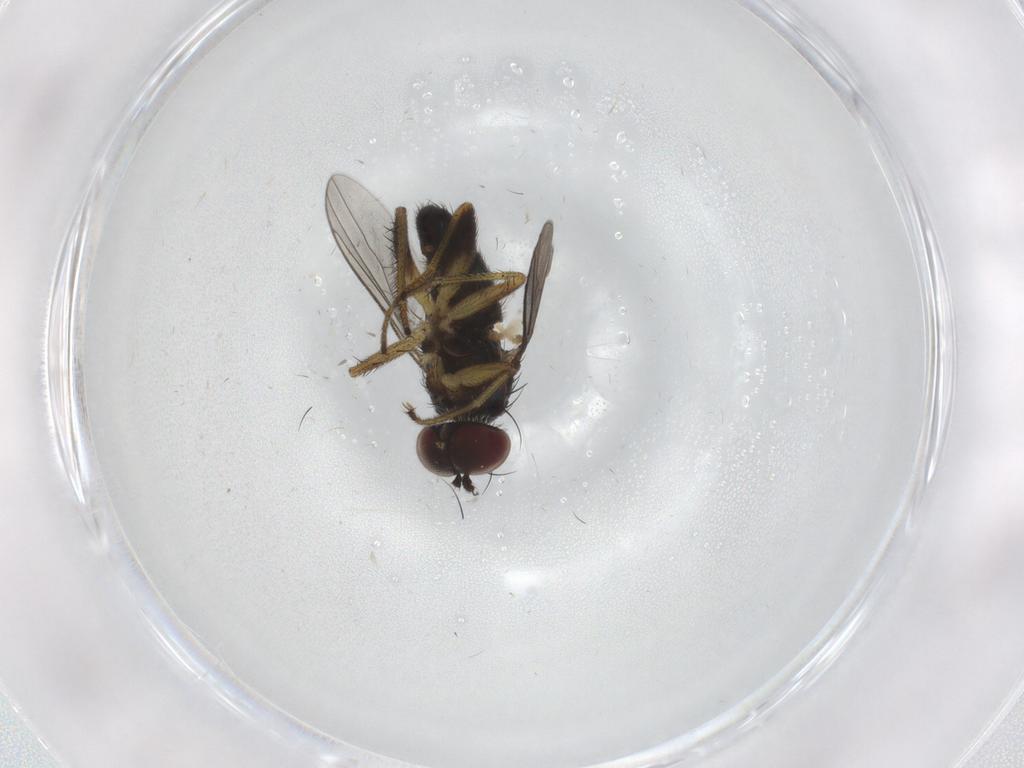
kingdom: Animalia
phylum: Arthropoda
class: Insecta
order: Diptera
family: Dolichopodidae
